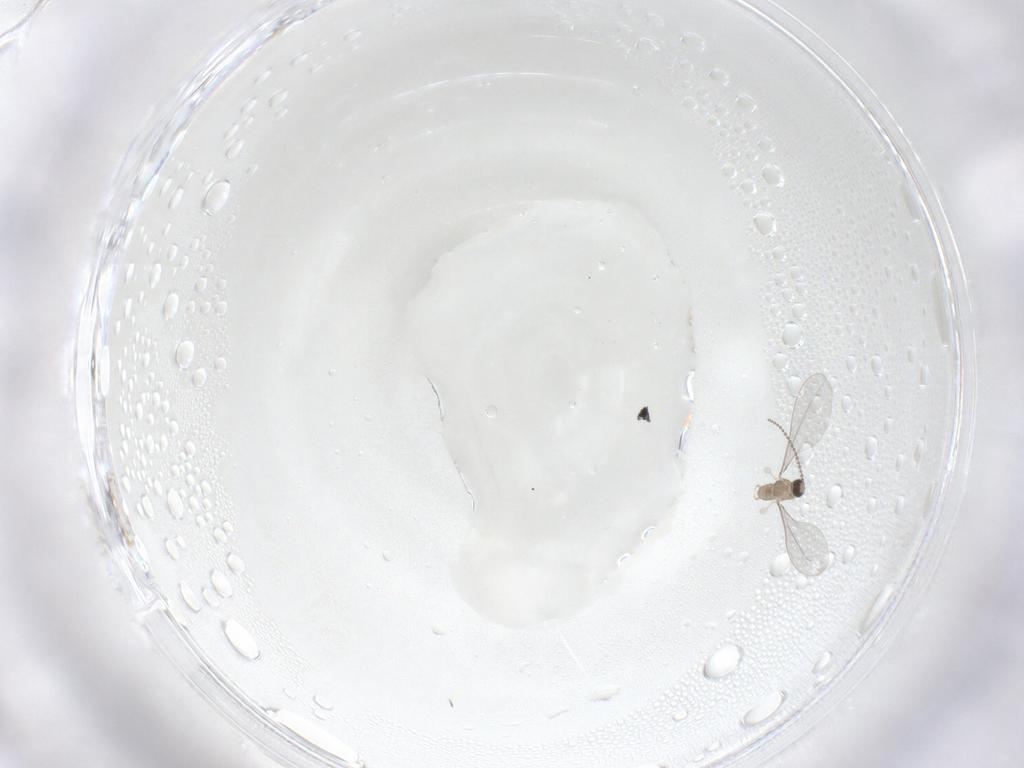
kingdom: Animalia
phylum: Arthropoda
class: Insecta
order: Diptera
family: Cecidomyiidae
